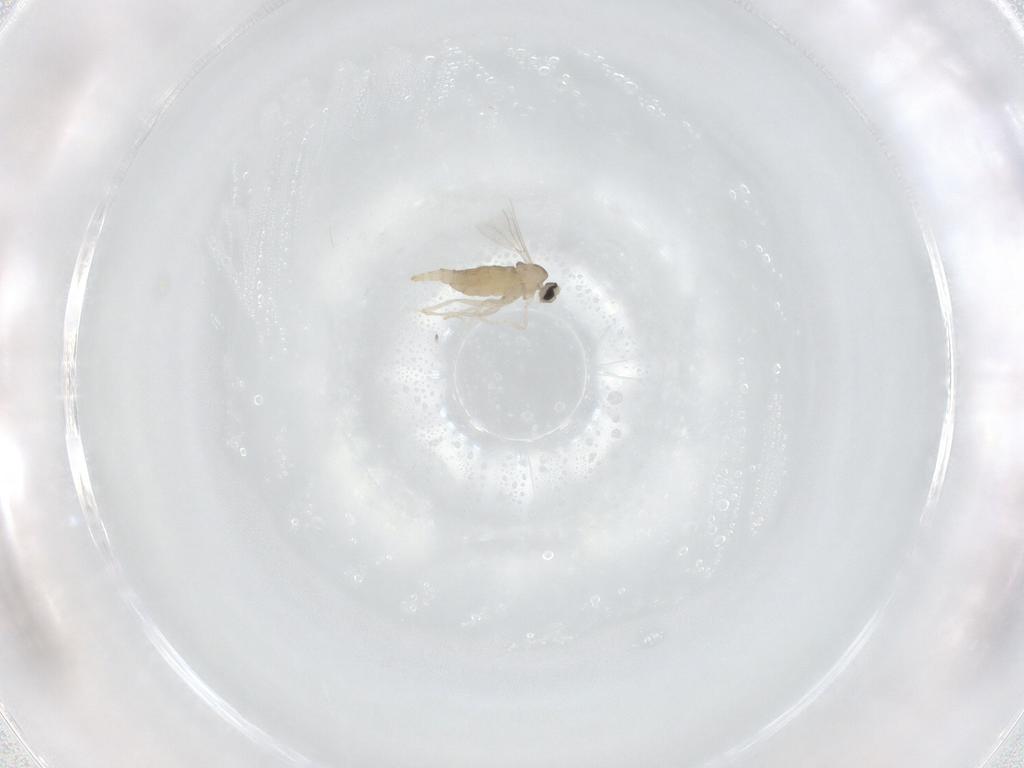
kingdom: Animalia
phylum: Arthropoda
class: Insecta
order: Diptera
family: Cecidomyiidae
